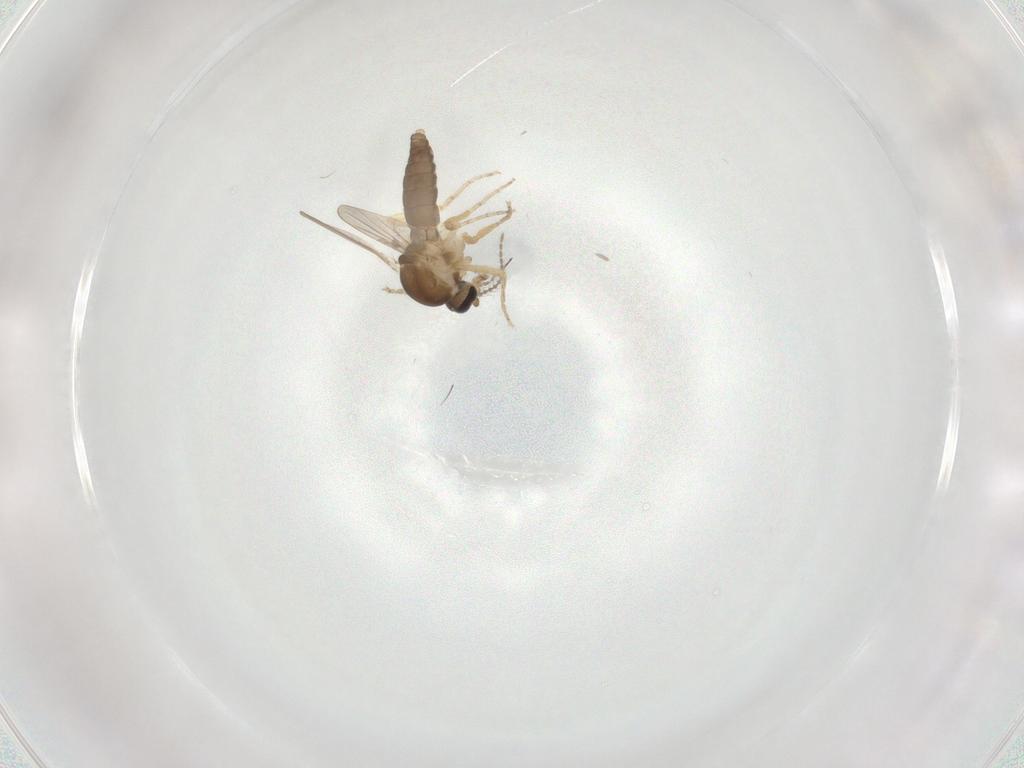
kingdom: Animalia
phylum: Arthropoda
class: Insecta
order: Diptera
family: Ceratopogonidae
